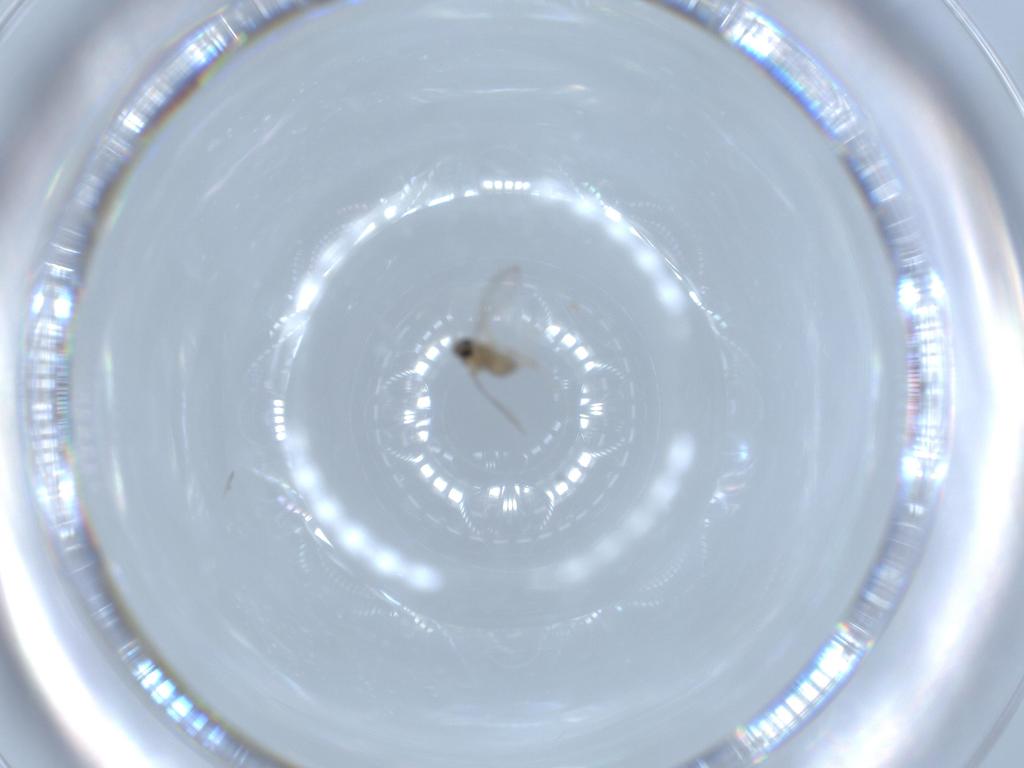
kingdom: Animalia
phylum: Arthropoda
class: Insecta
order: Diptera
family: Cecidomyiidae
